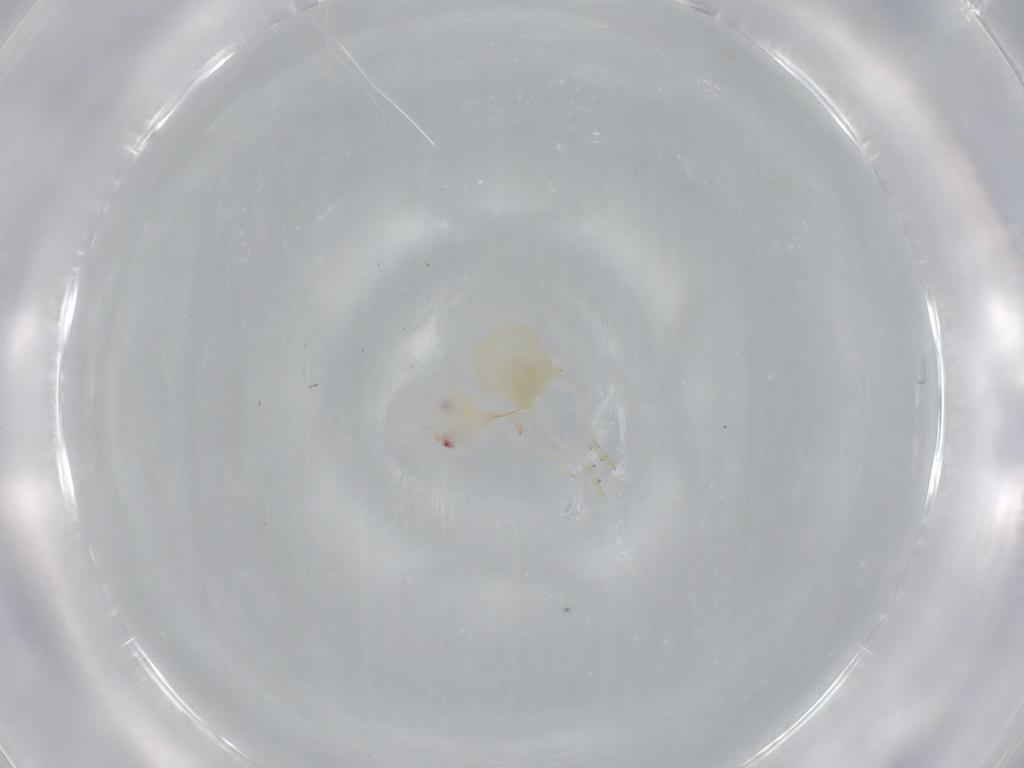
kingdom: Animalia
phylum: Arthropoda
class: Insecta
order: Hemiptera
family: Flatidae
